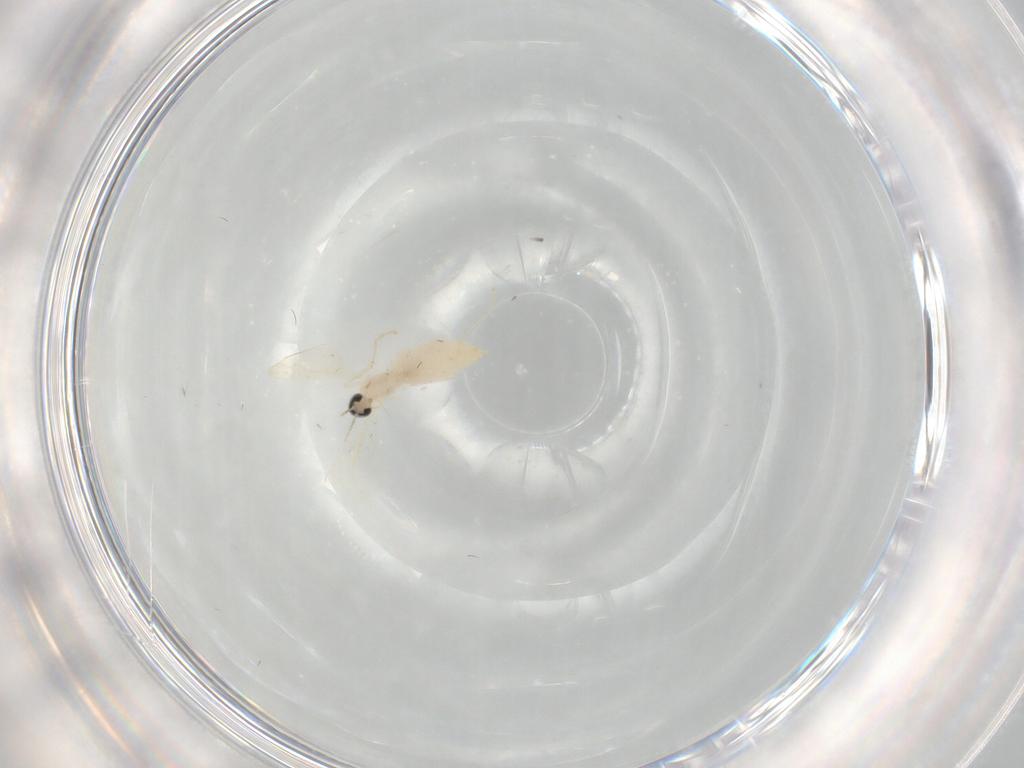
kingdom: Animalia
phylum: Arthropoda
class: Insecta
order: Diptera
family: Cecidomyiidae
